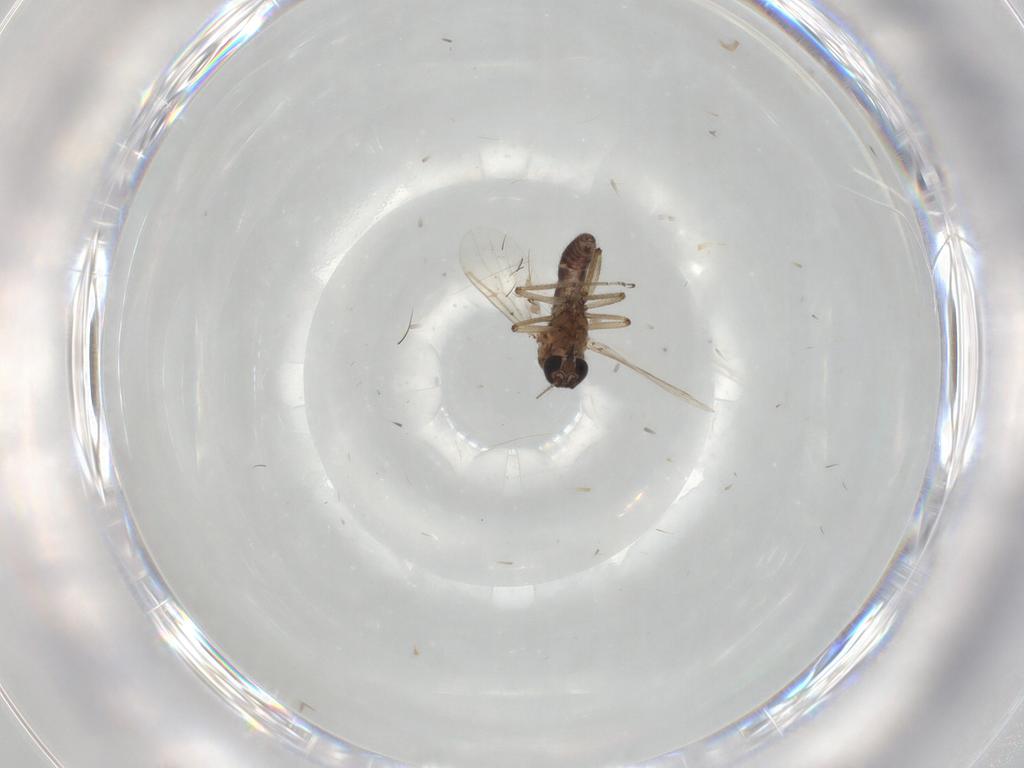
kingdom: Animalia
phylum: Arthropoda
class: Insecta
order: Diptera
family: Ceratopogonidae
